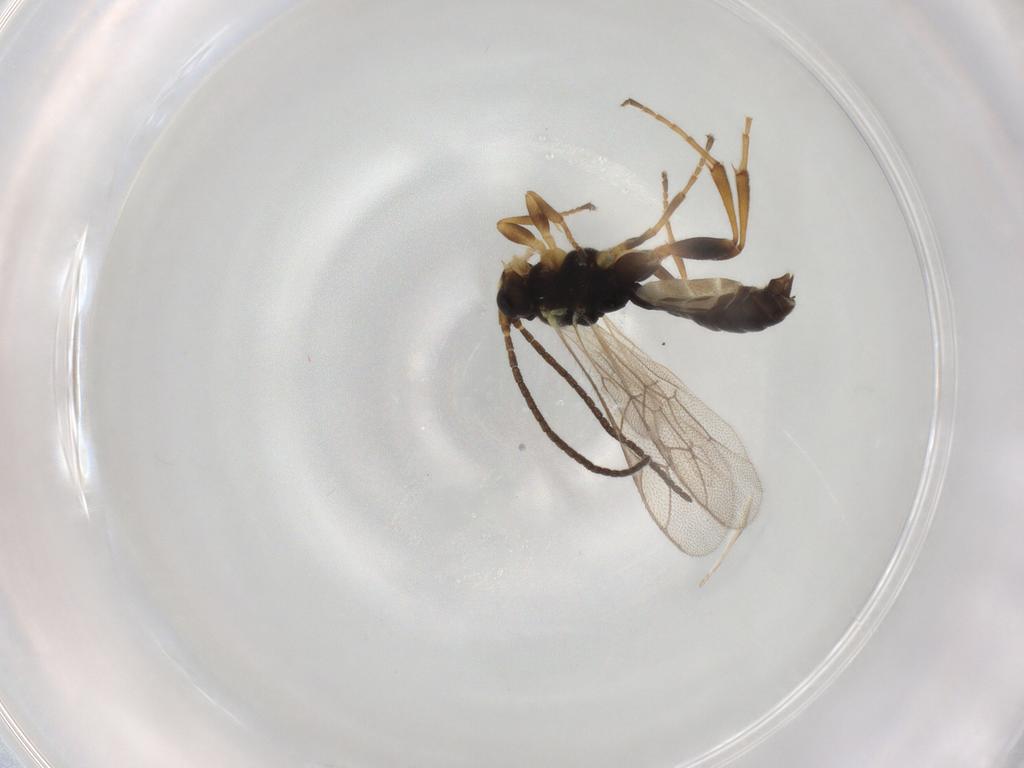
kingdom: Animalia
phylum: Arthropoda
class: Insecta
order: Hymenoptera
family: Ichneumonidae
